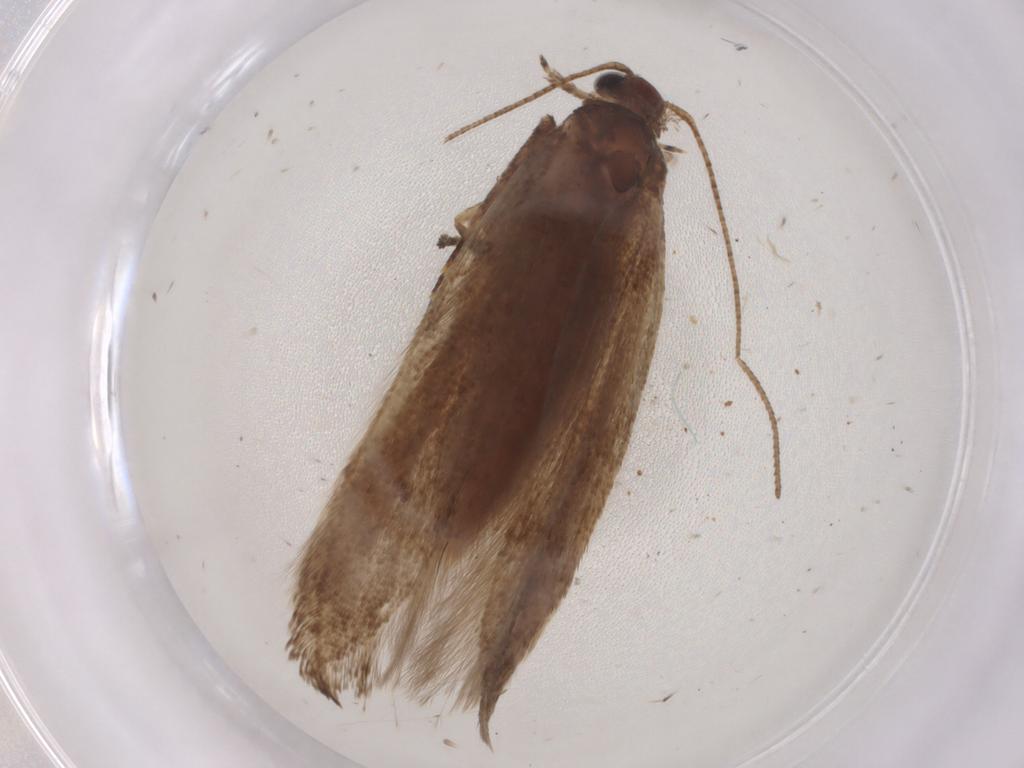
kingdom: Animalia
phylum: Arthropoda
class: Insecta
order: Lepidoptera
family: Gelechiidae
